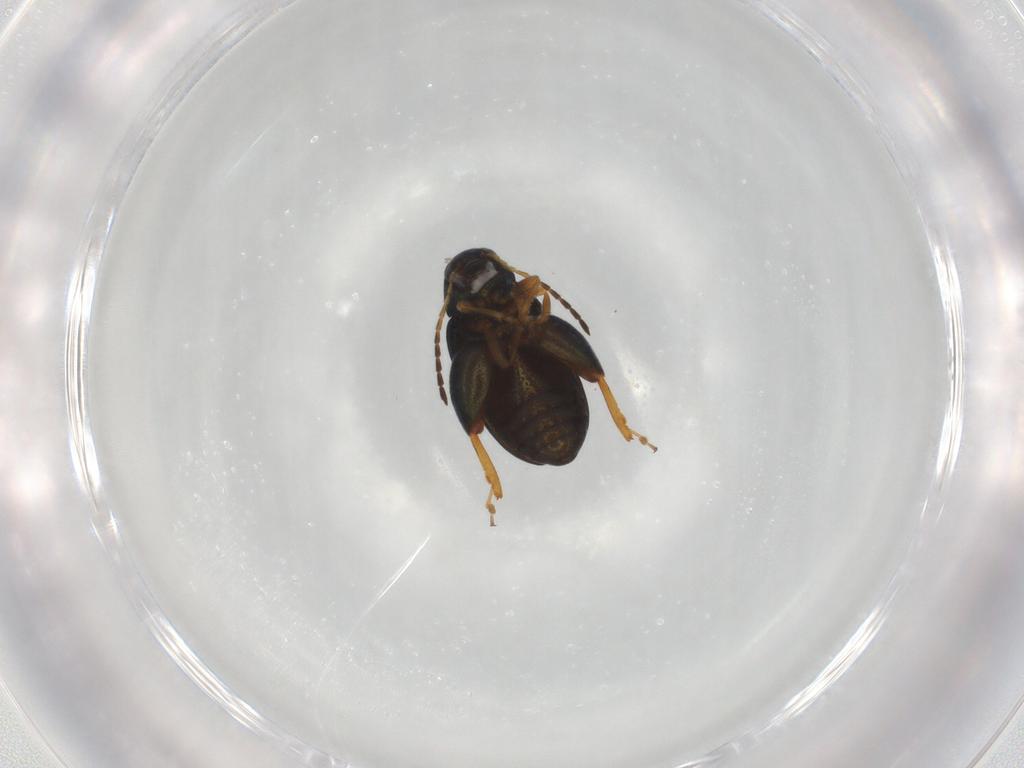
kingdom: Animalia
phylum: Arthropoda
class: Insecta
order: Coleoptera
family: Chrysomelidae
